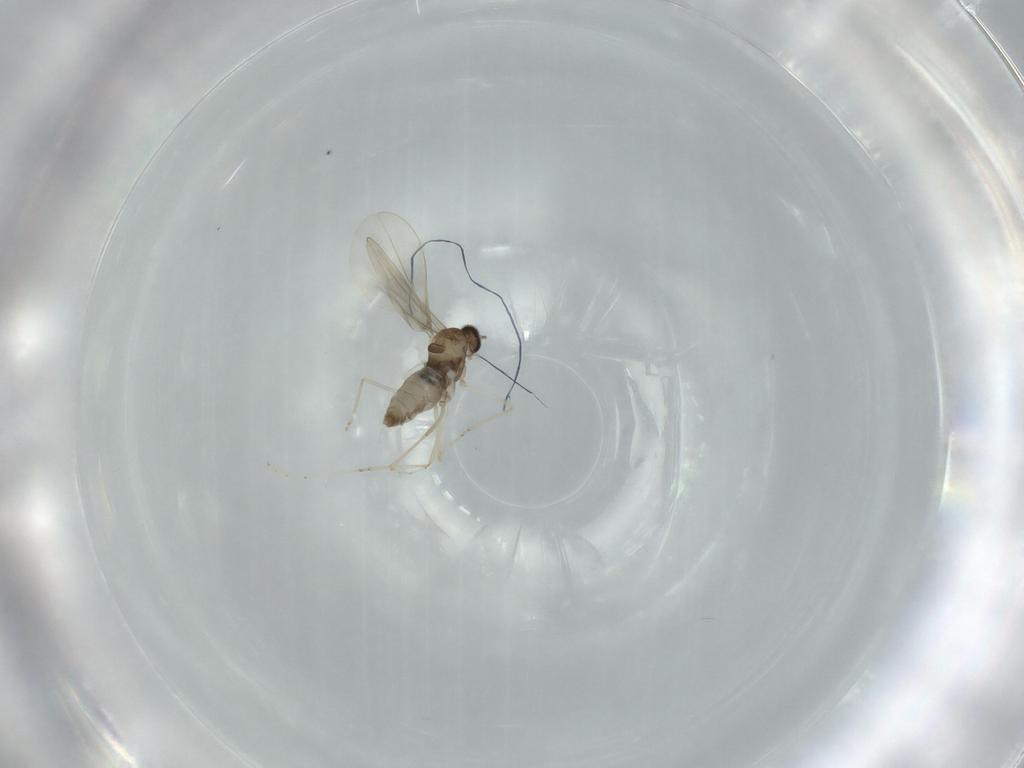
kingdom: Animalia
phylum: Arthropoda
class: Insecta
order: Diptera
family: Cecidomyiidae
